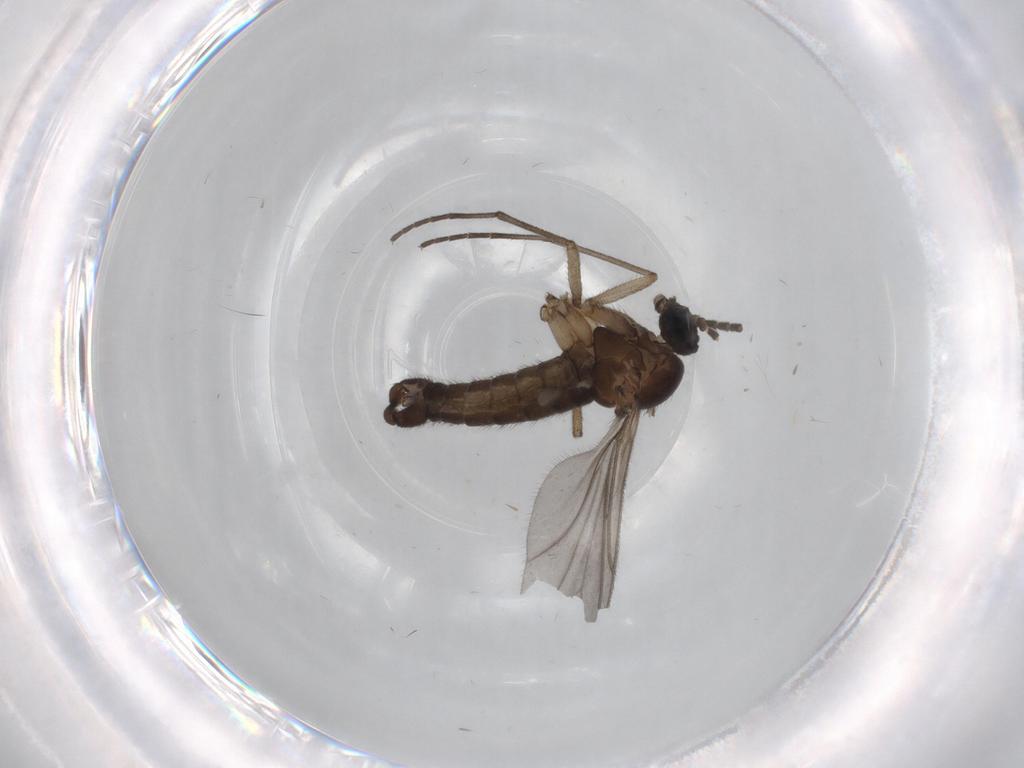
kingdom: Animalia
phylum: Arthropoda
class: Insecta
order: Diptera
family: Sciaridae
